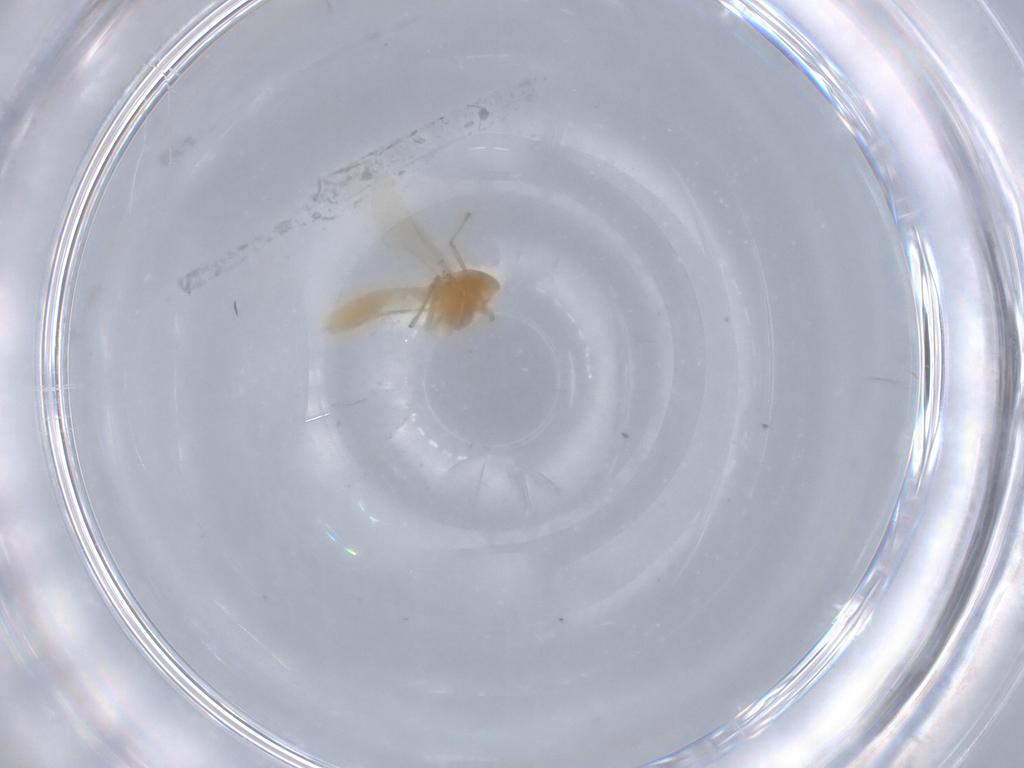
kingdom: Animalia
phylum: Arthropoda
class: Insecta
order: Diptera
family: Chironomidae
